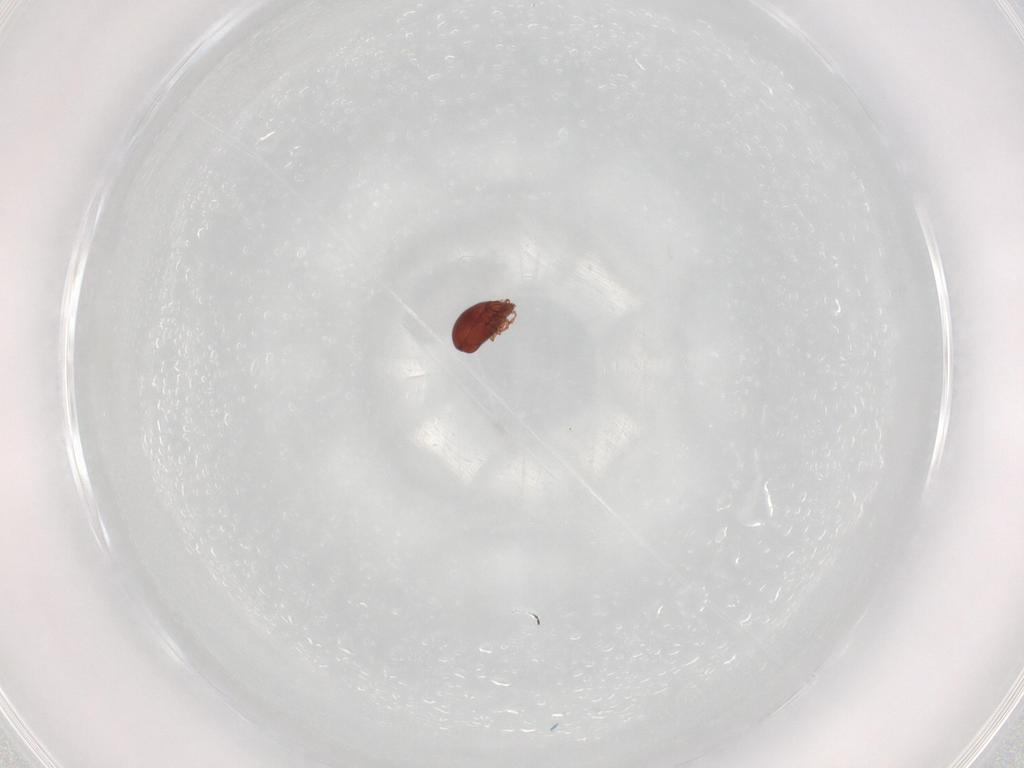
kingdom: Animalia
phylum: Arthropoda
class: Arachnida
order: Sarcoptiformes
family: Ceratozetidae
